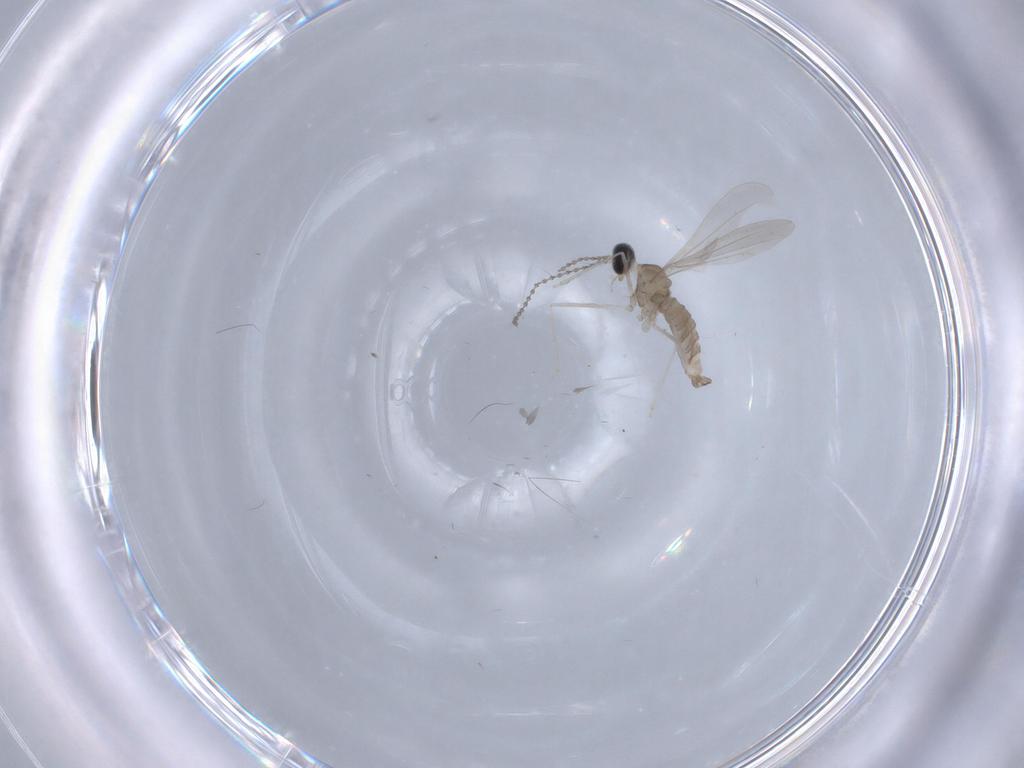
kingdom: Animalia
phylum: Arthropoda
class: Insecta
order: Diptera
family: Cecidomyiidae
